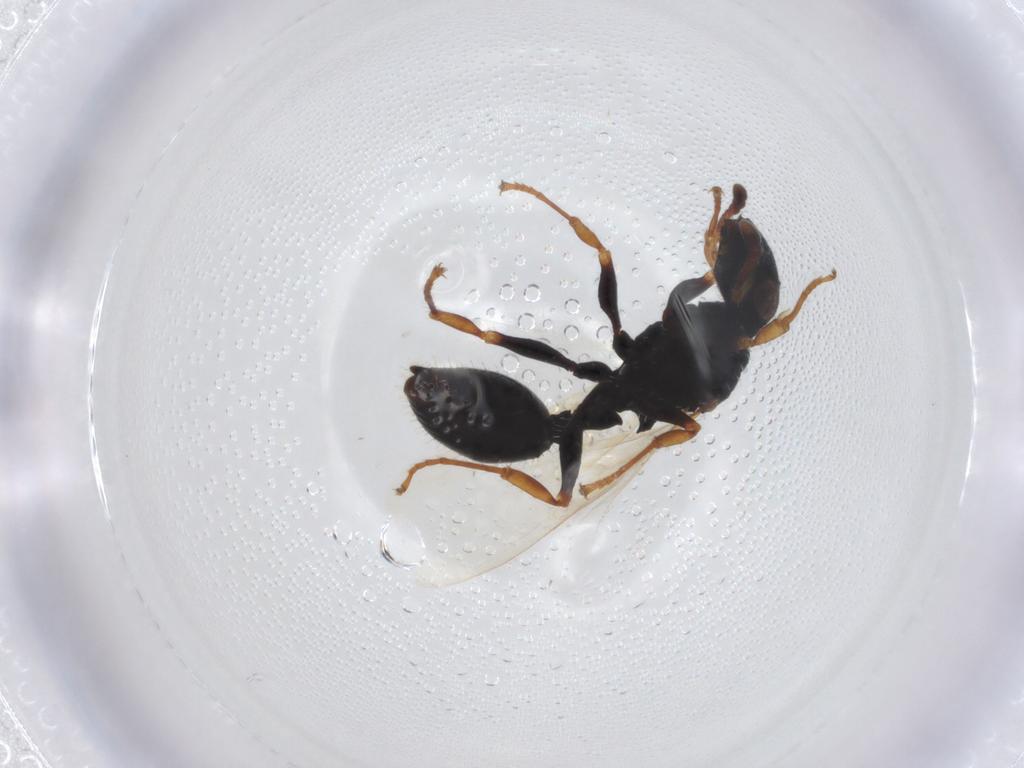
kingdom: Animalia
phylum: Arthropoda
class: Insecta
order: Hymenoptera
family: Formicidae
